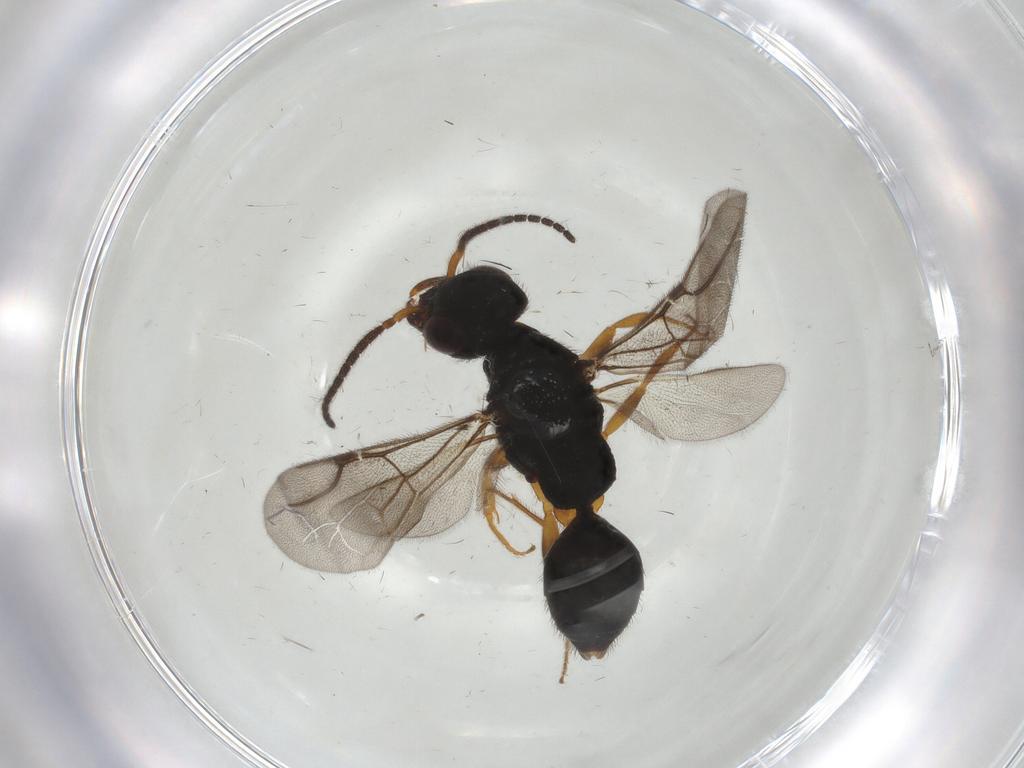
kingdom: Animalia
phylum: Arthropoda
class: Insecta
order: Hymenoptera
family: Bethylidae
